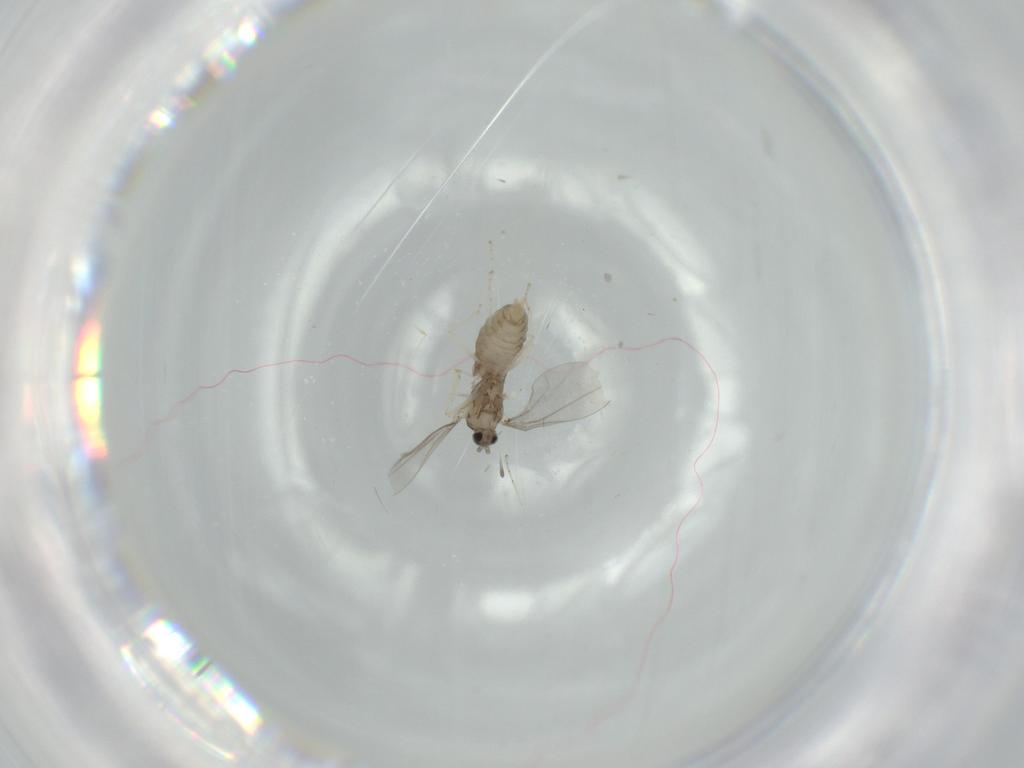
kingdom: Animalia
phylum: Arthropoda
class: Insecta
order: Diptera
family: Cecidomyiidae
